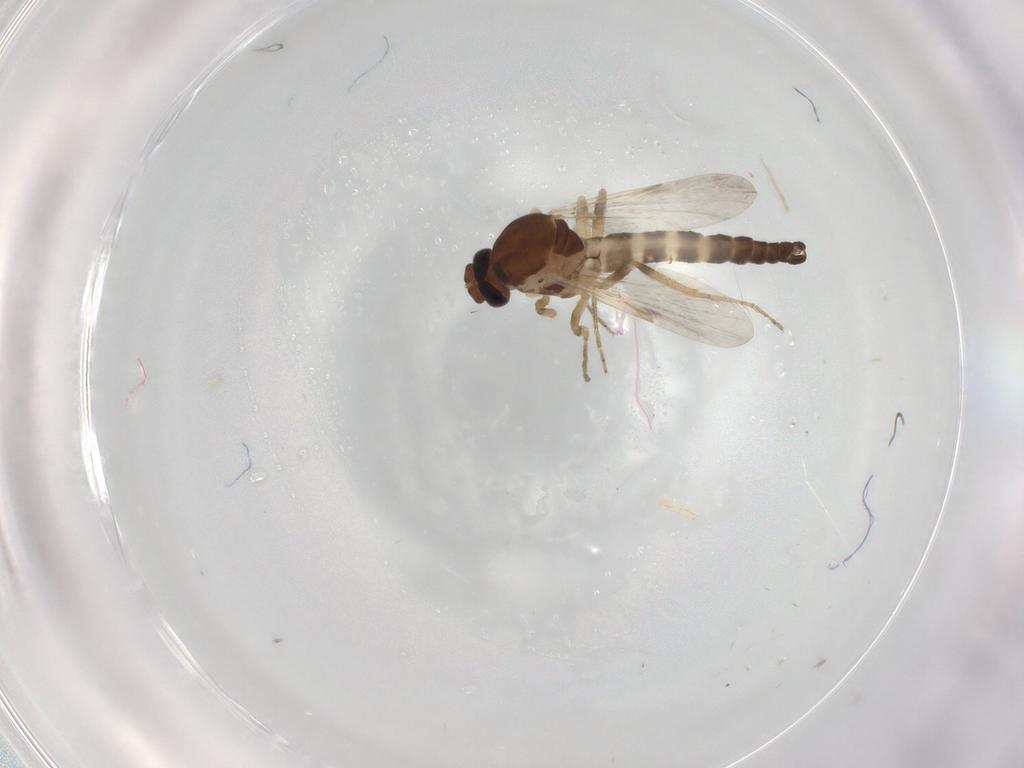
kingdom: Animalia
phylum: Arthropoda
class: Insecta
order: Diptera
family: Ceratopogonidae
